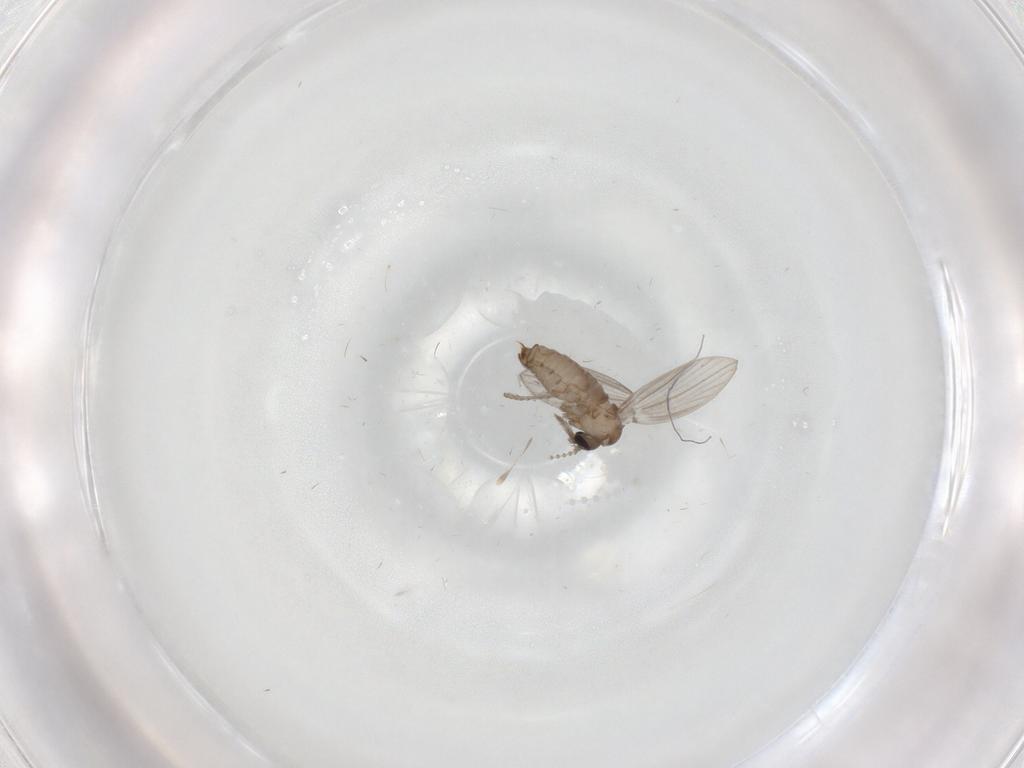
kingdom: Animalia
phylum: Arthropoda
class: Insecta
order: Diptera
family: Psychodidae
